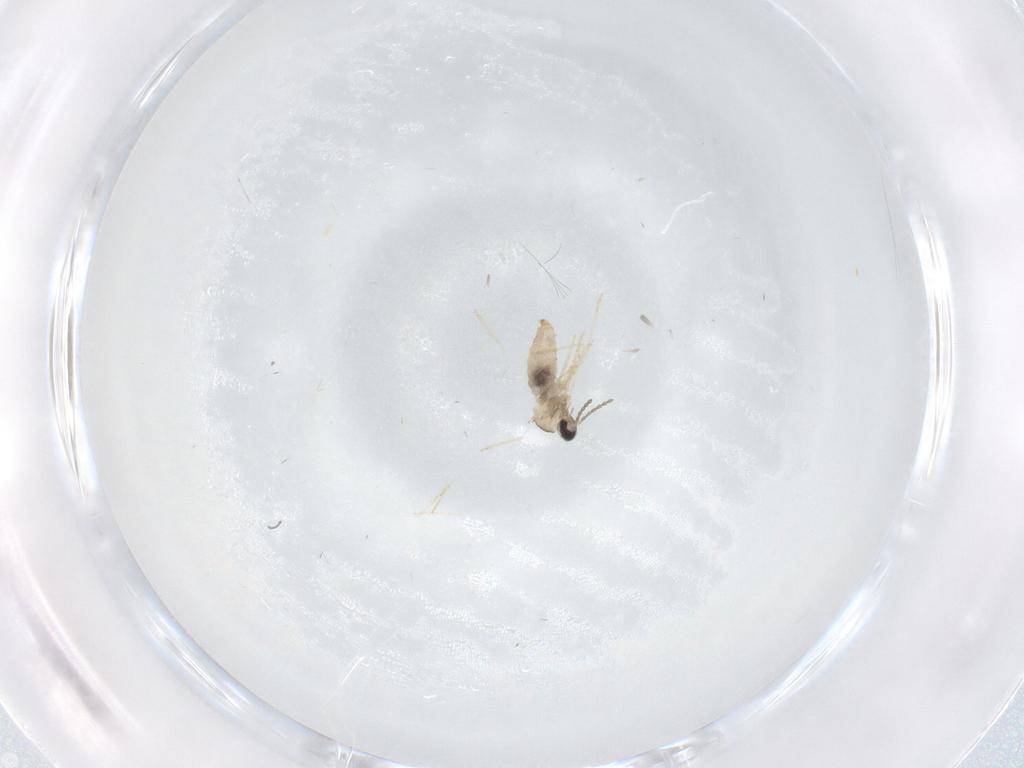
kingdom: Animalia
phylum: Arthropoda
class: Insecta
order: Diptera
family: Cecidomyiidae
